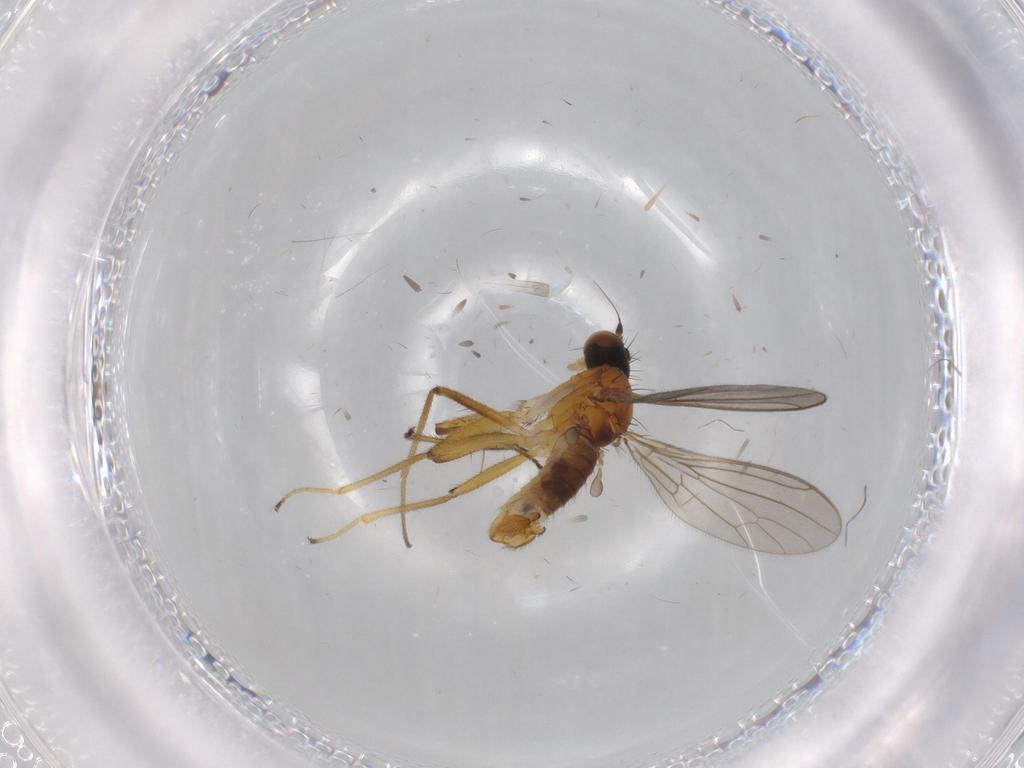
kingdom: Animalia
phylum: Arthropoda
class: Insecta
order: Diptera
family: Empididae
